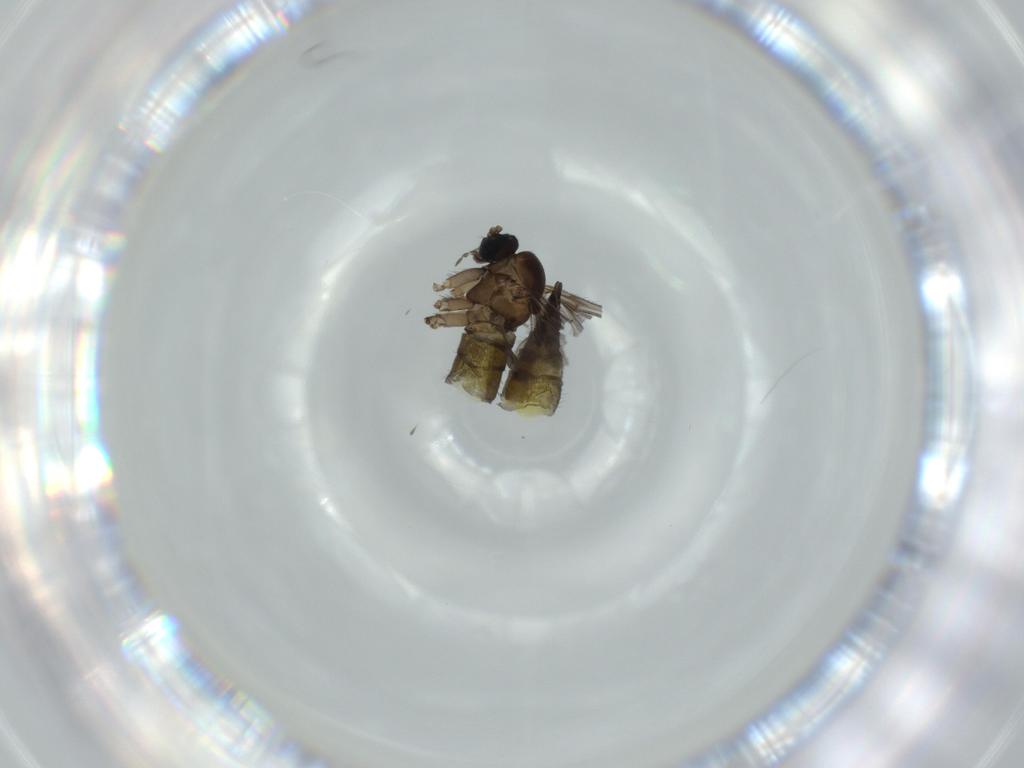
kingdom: Animalia
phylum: Arthropoda
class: Insecta
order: Diptera
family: Sciaridae
